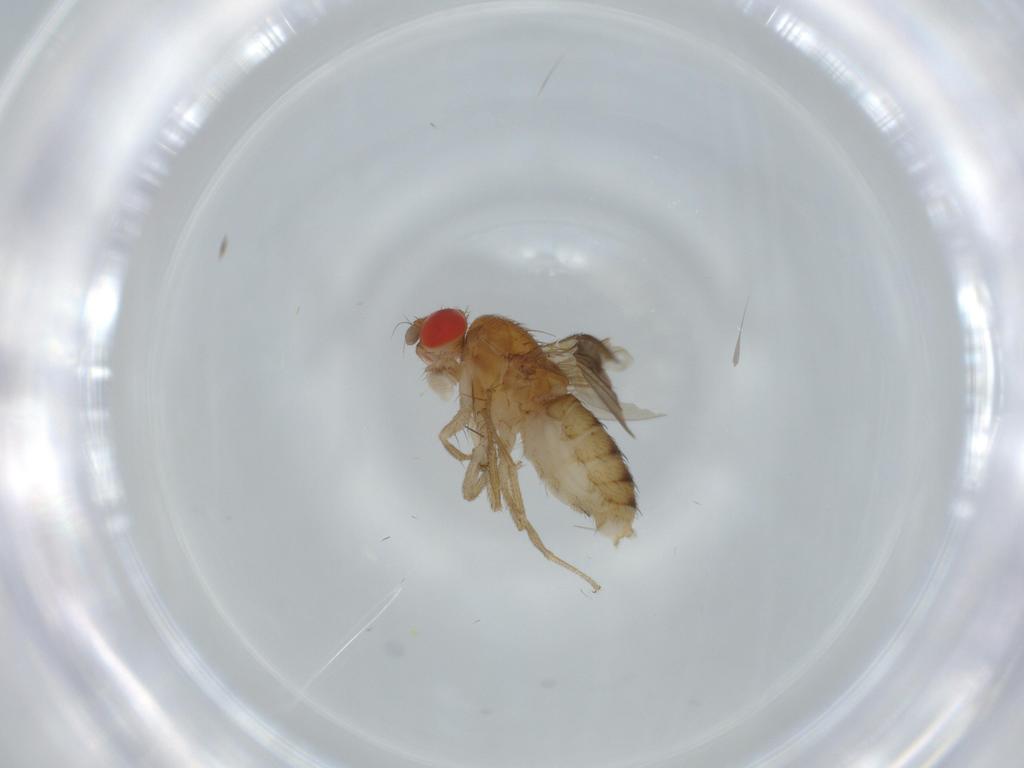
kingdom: Animalia
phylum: Arthropoda
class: Insecta
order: Diptera
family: Drosophilidae
